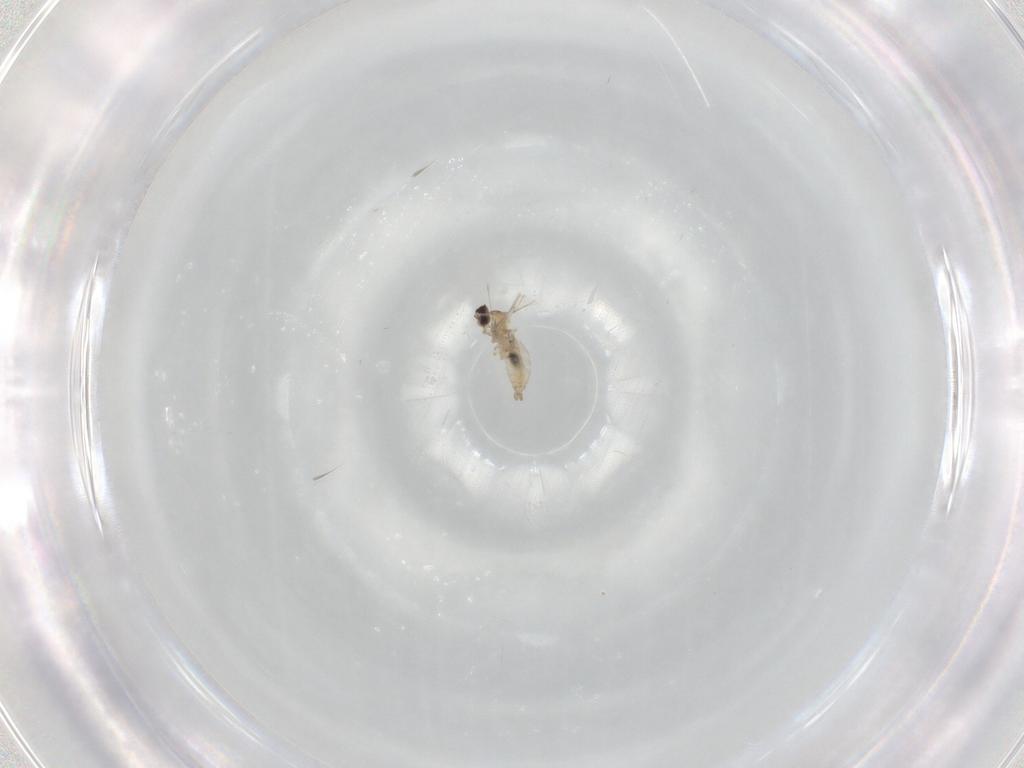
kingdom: Animalia
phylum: Arthropoda
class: Insecta
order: Diptera
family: Cecidomyiidae
